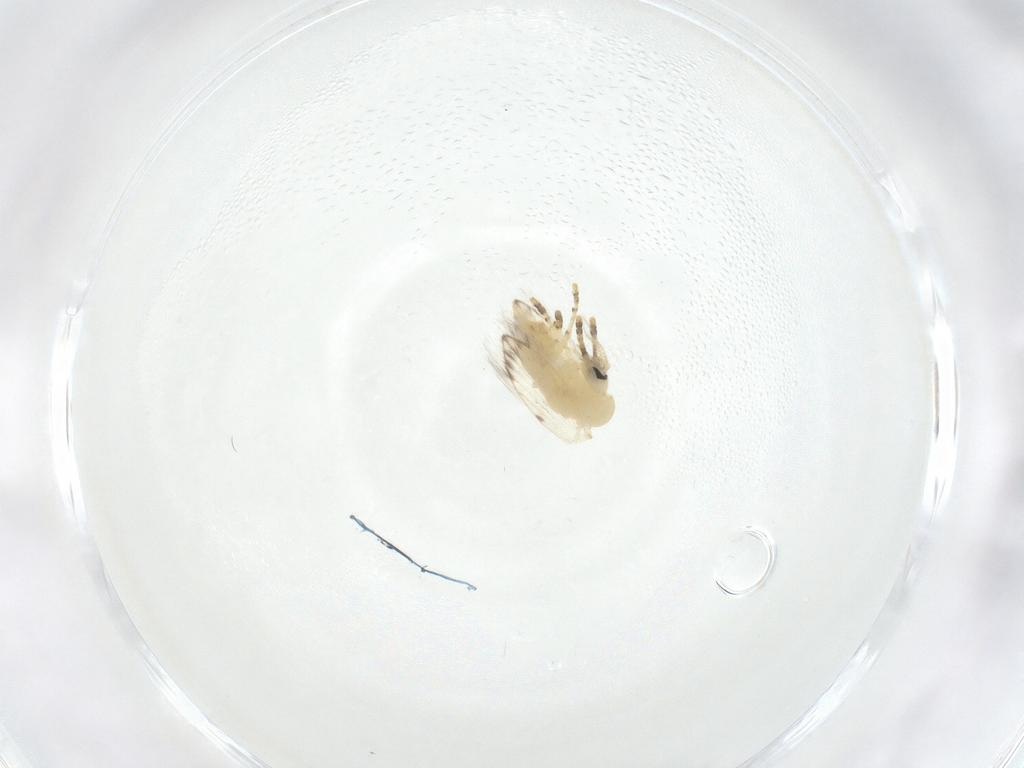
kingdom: Animalia
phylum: Arthropoda
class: Insecta
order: Diptera
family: Psychodidae
